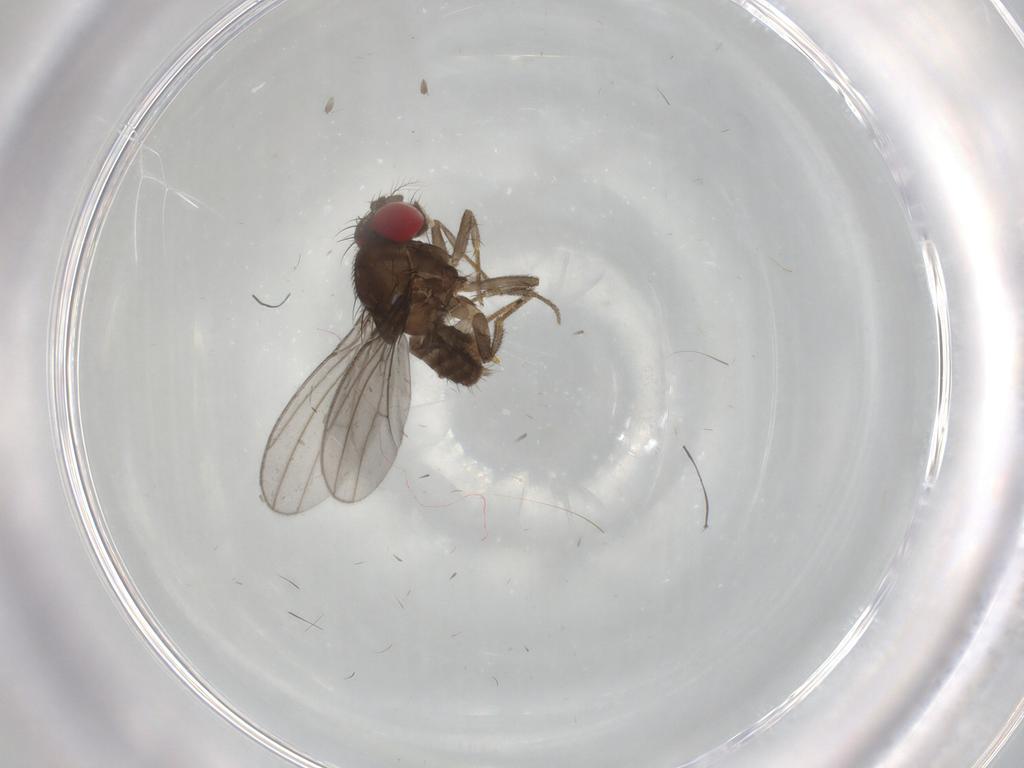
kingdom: Animalia
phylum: Arthropoda
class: Insecta
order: Diptera
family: Drosophilidae
